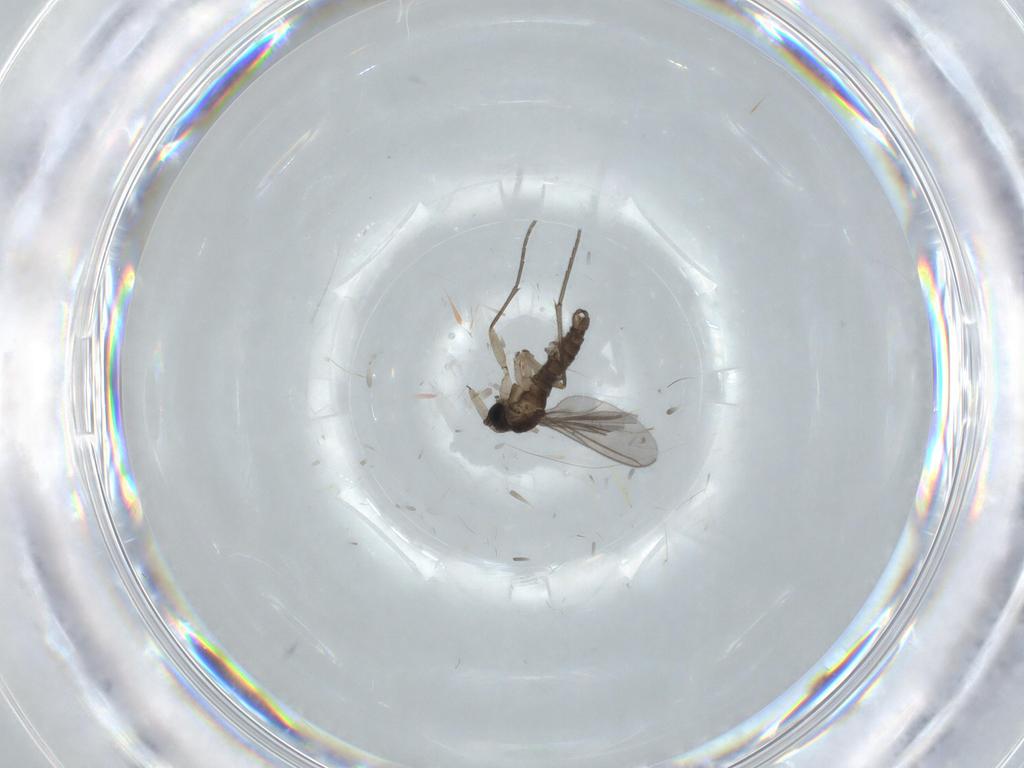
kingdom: Animalia
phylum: Arthropoda
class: Insecta
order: Diptera
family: Sciaridae
